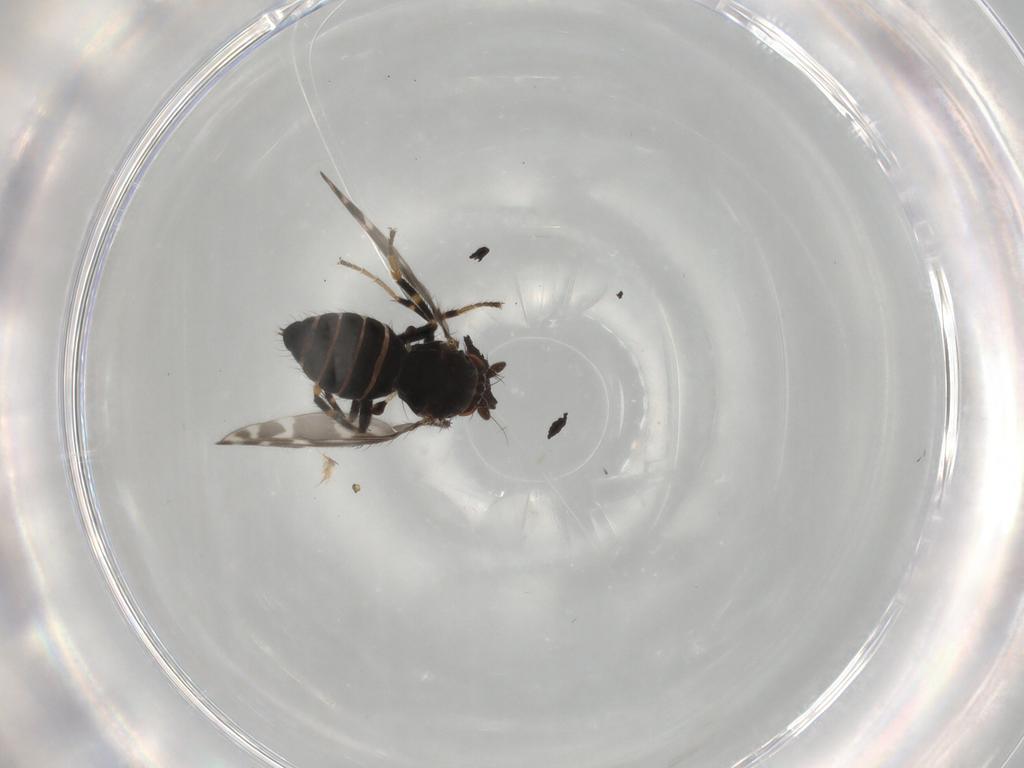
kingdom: Animalia
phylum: Arthropoda
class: Insecta
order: Diptera
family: Sphaeroceridae
